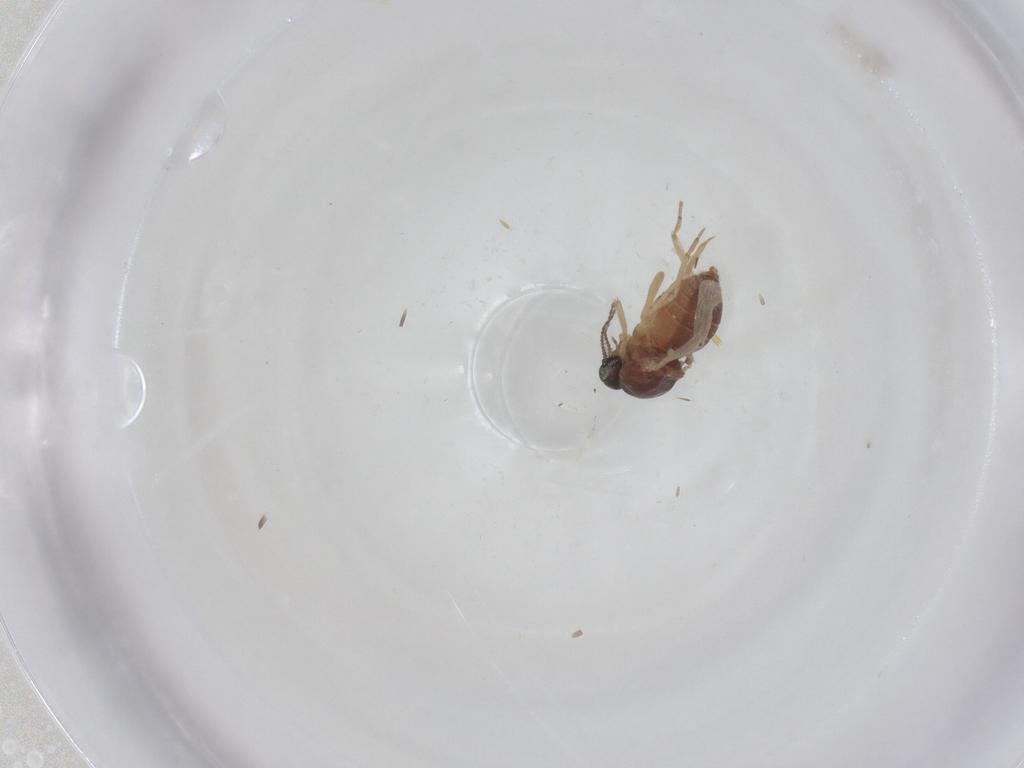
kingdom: Animalia
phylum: Arthropoda
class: Insecta
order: Diptera
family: Ceratopogonidae
